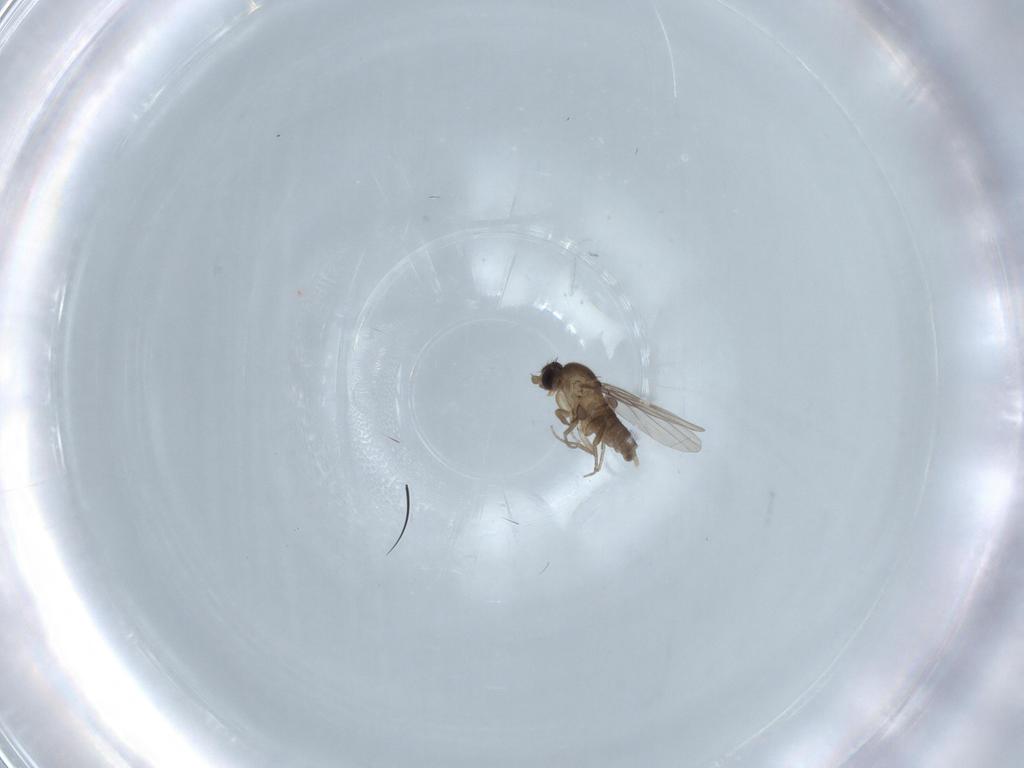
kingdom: Animalia
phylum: Arthropoda
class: Insecta
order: Diptera
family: Phoridae
